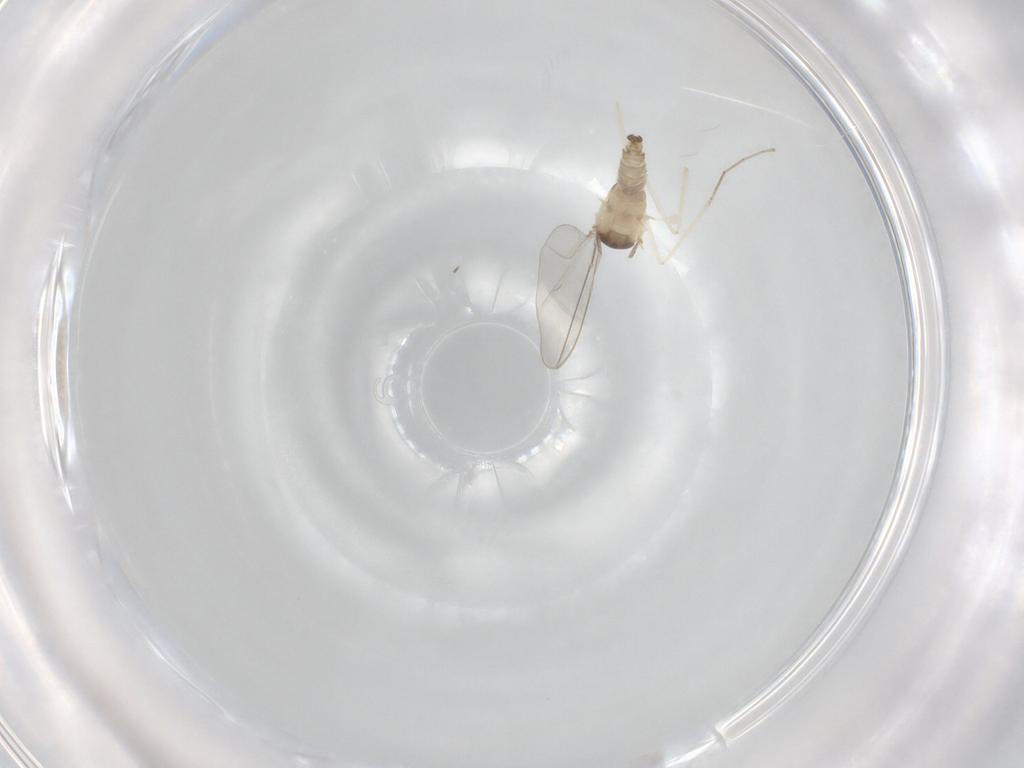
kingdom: Animalia
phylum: Arthropoda
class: Insecta
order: Diptera
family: Cecidomyiidae
